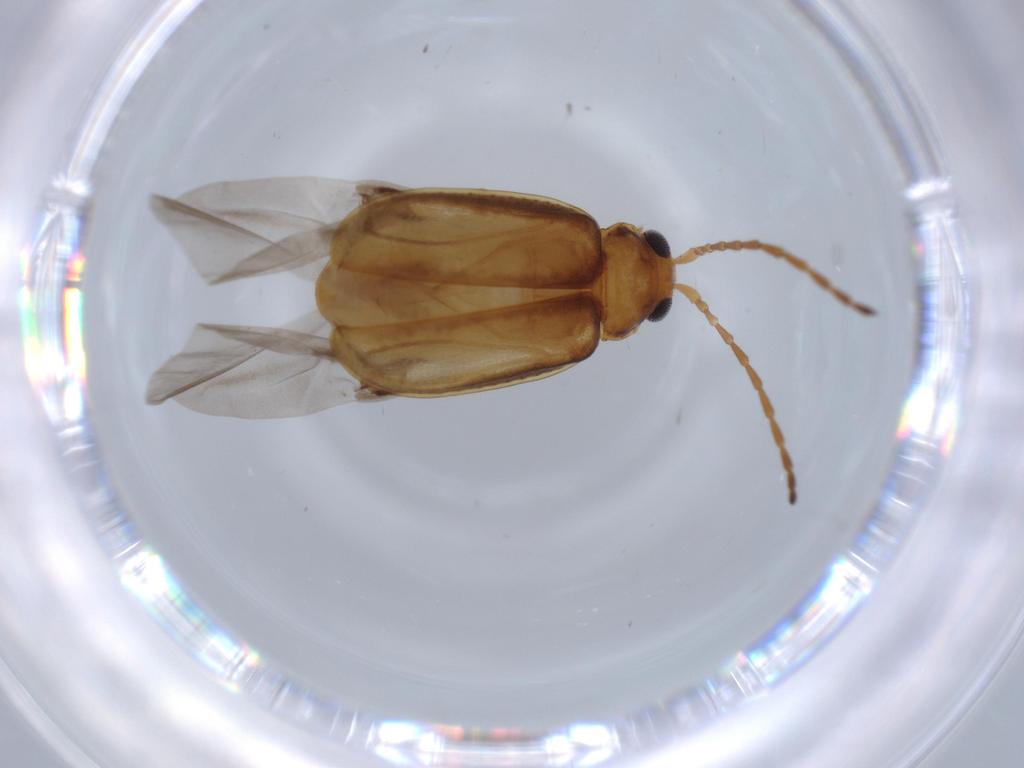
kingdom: Animalia
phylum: Arthropoda
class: Insecta
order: Coleoptera
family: Chrysomelidae
